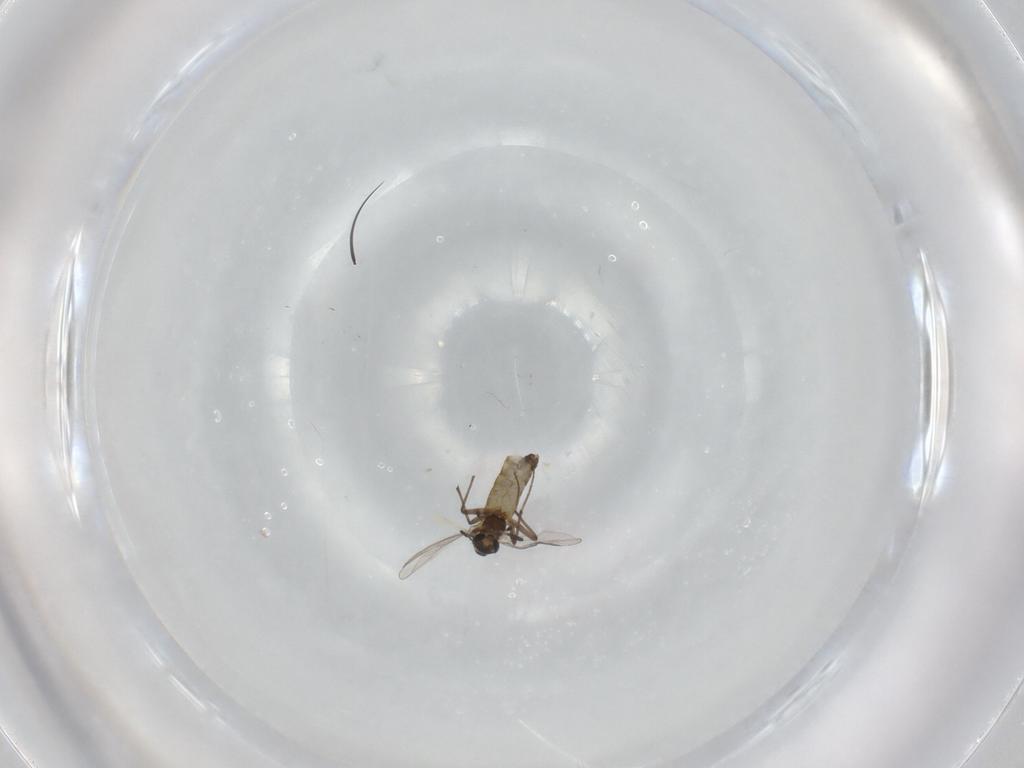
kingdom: Animalia
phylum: Arthropoda
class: Insecta
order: Diptera
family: Chironomidae
